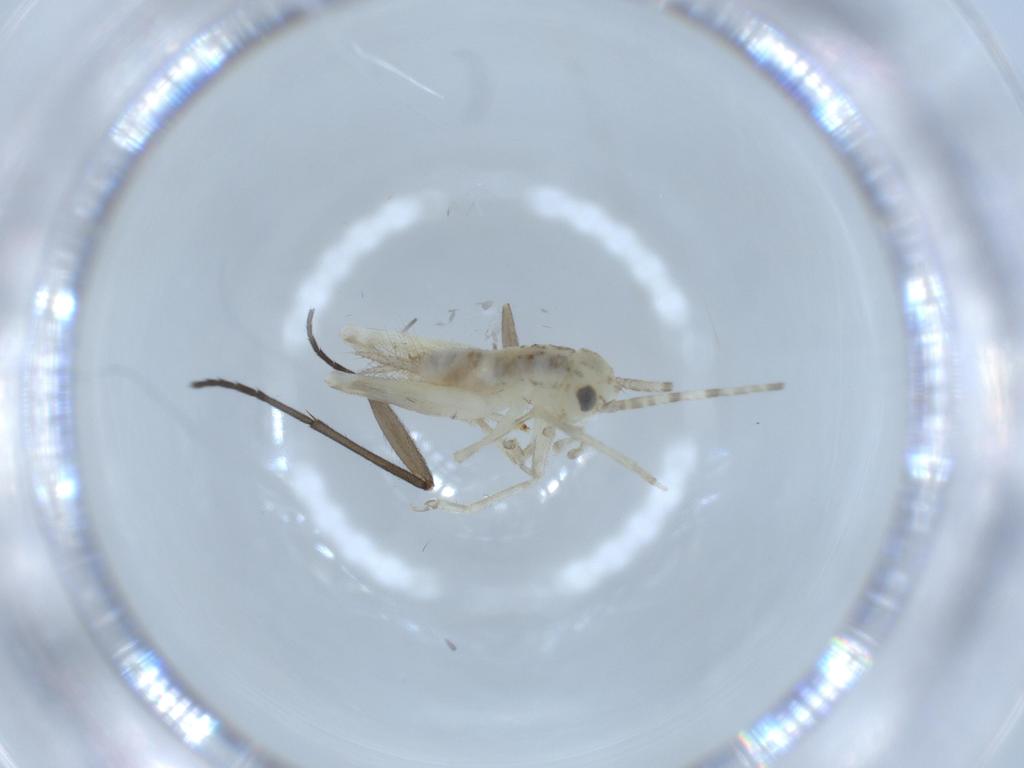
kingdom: Animalia
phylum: Arthropoda
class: Insecta
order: Orthoptera
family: Trigonidiidae
